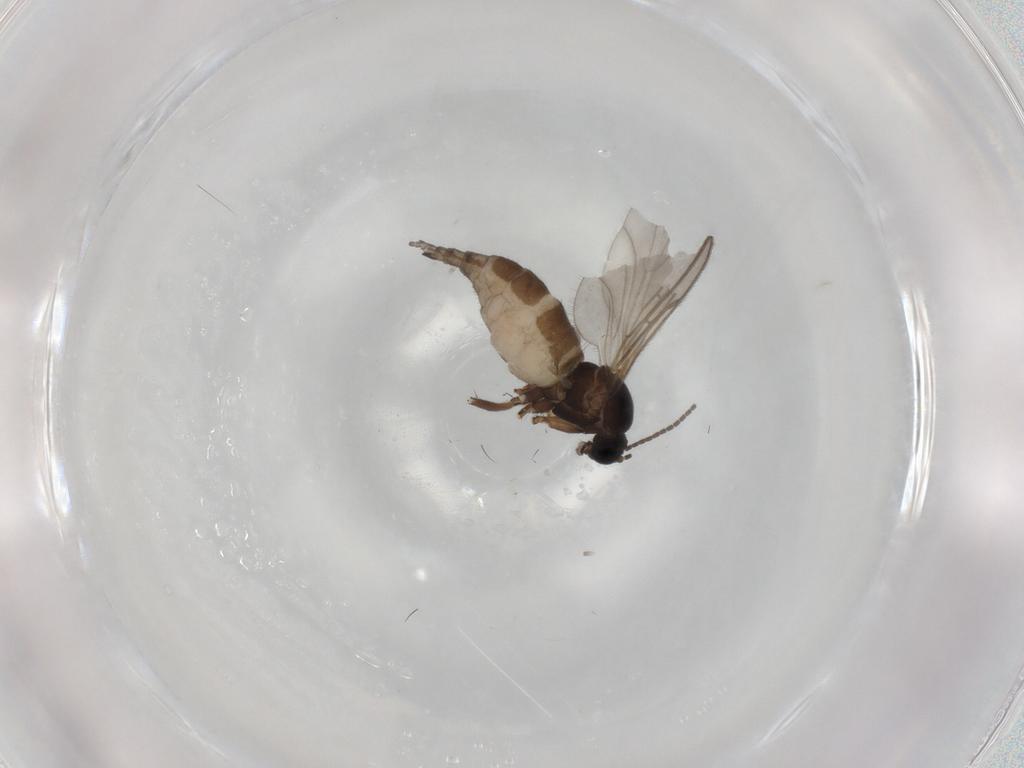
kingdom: Animalia
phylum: Arthropoda
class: Insecta
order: Diptera
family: Sciaridae
